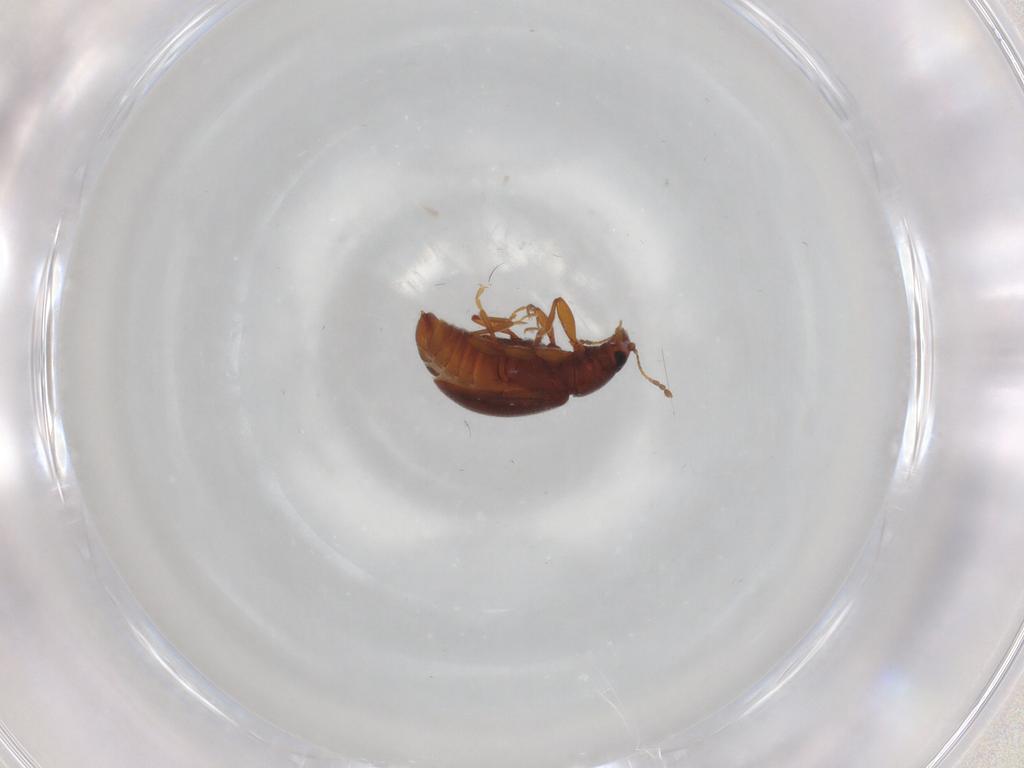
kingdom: Animalia
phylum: Arthropoda
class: Insecta
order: Coleoptera
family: Latridiidae
